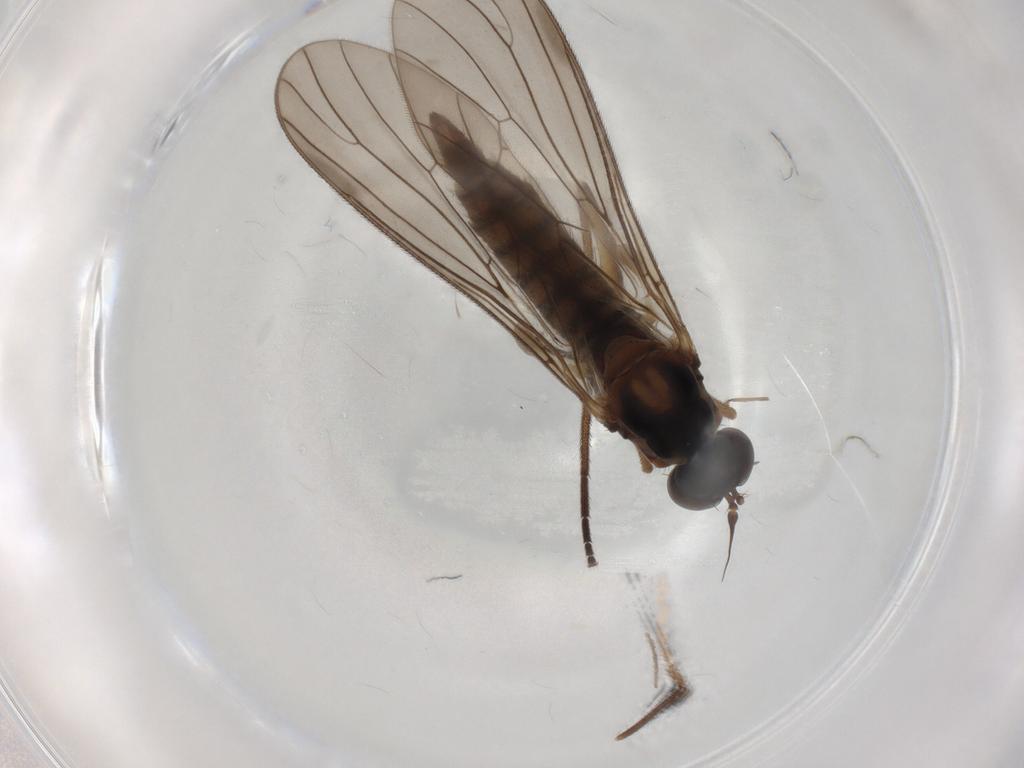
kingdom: Animalia
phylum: Arthropoda
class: Insecta
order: Diptera
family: Hybotidae
